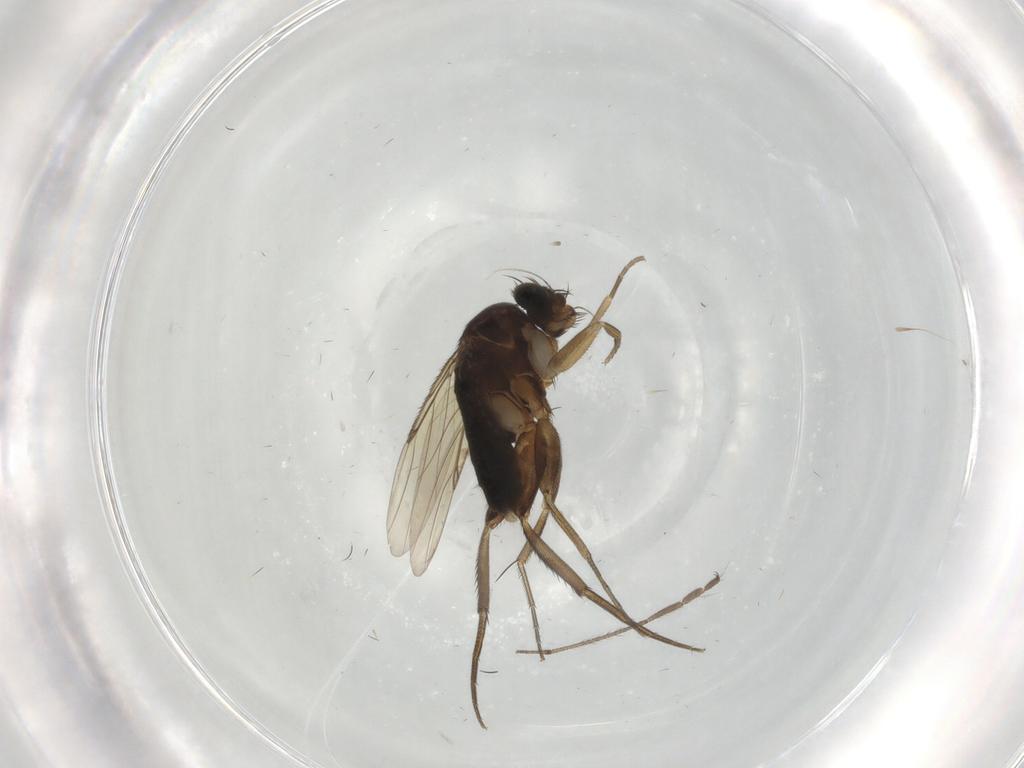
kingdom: Animalia
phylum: Arthropoda
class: Insecta
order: Diptera
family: Phoridae
